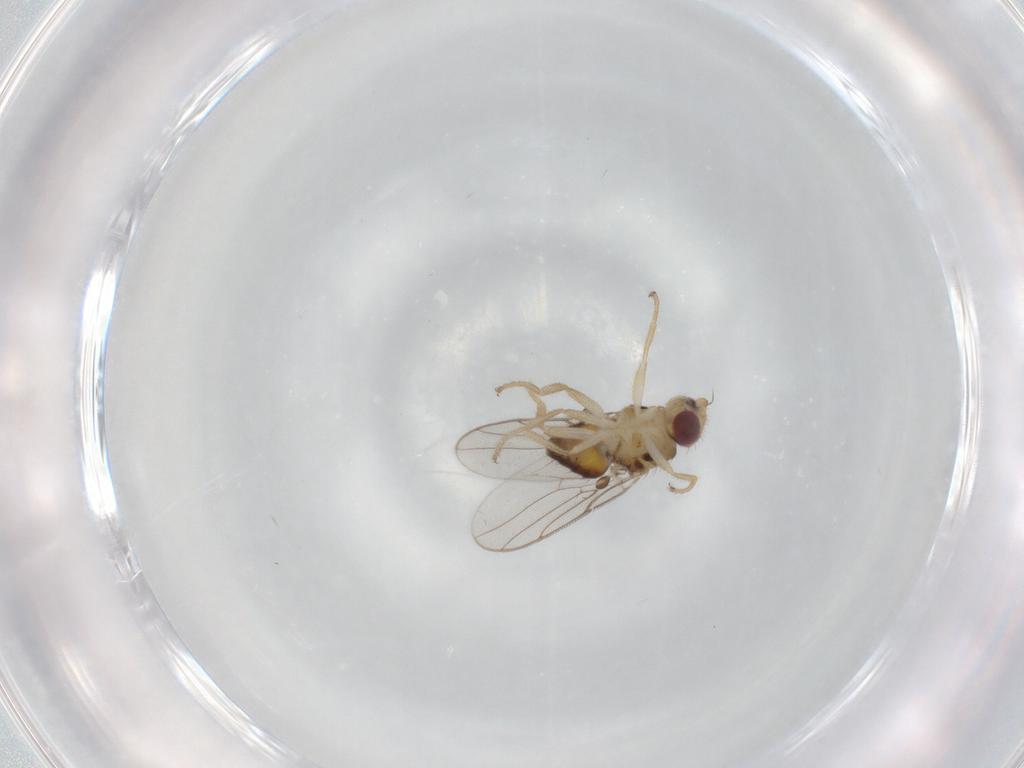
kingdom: Animalia
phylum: Arthropoda
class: Insecta
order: Diptera
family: Chloropidae
